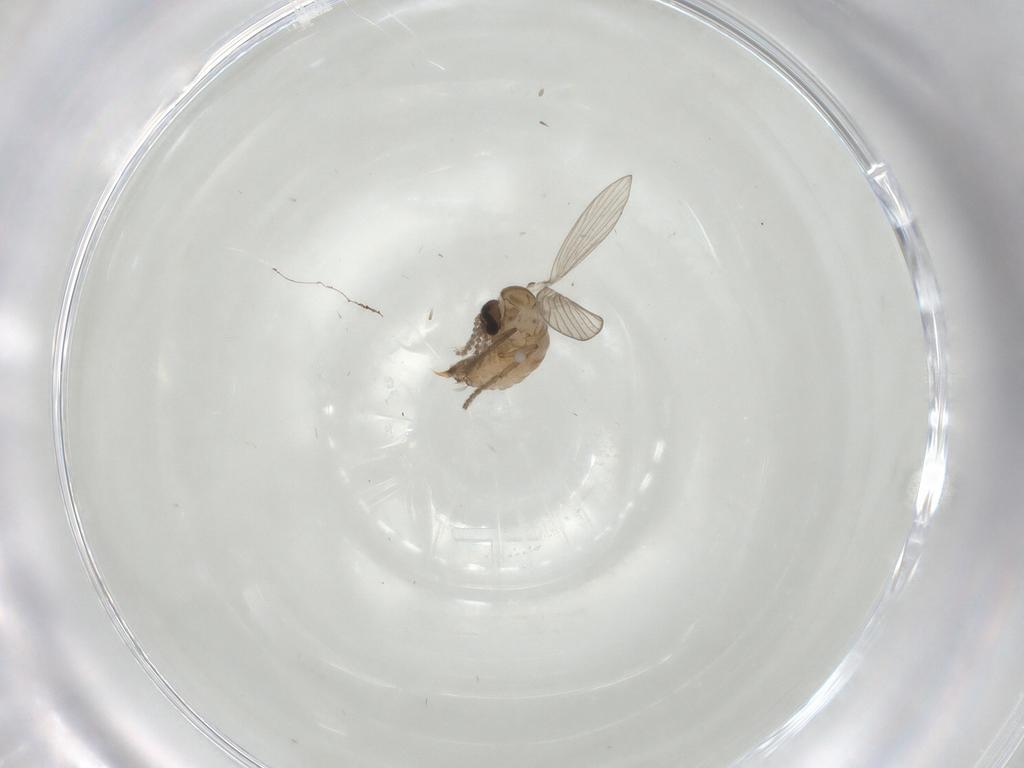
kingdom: Animalia
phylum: Arthropoda
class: Insecta
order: Diptera
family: Psychodidae
